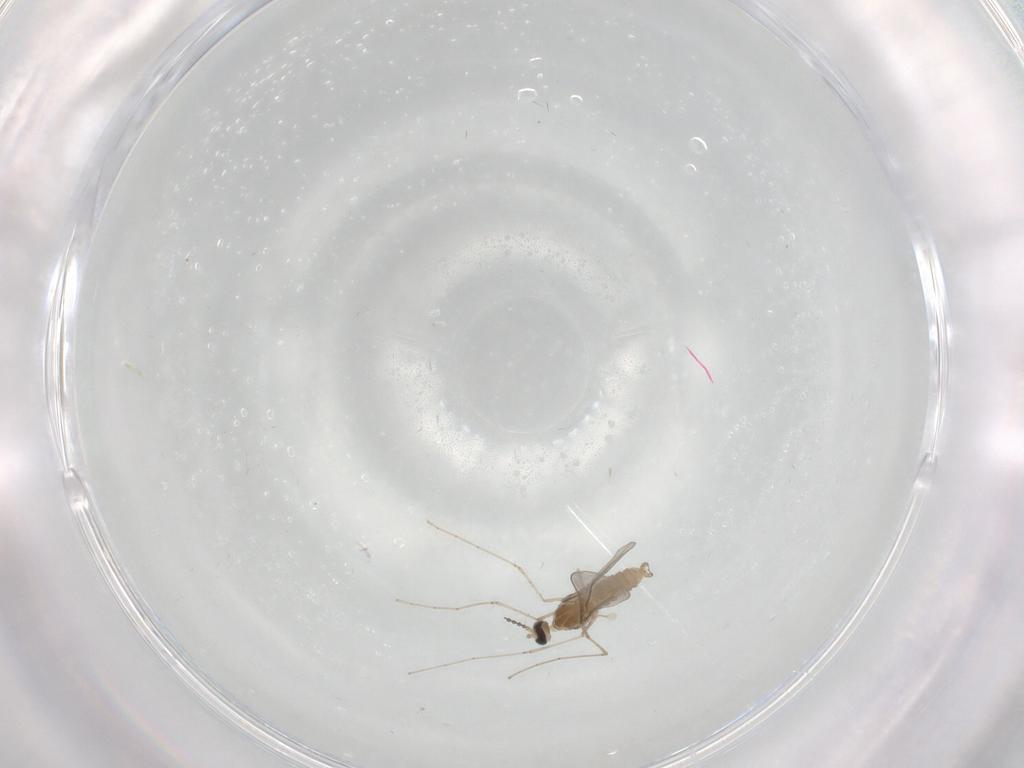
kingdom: Animalia
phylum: Arthropoda
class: Insecta
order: Diptera
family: Cecidomyiidae
